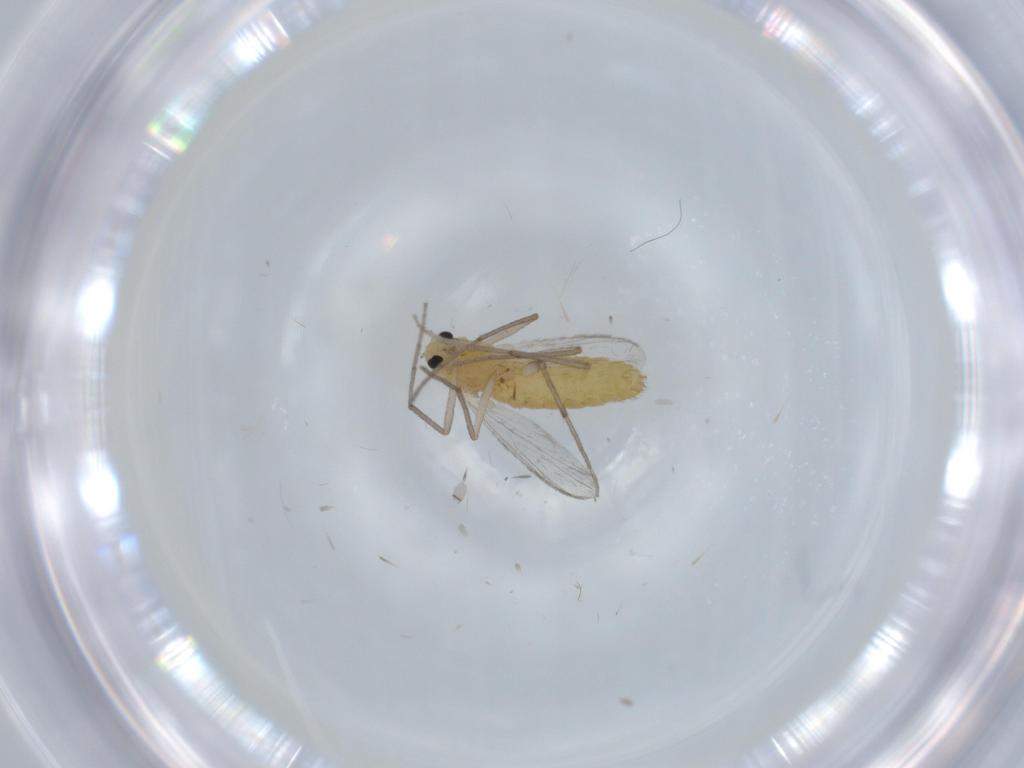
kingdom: Animalia
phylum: Arthropoda
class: Insecta
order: Diptera
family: Chironomidae
